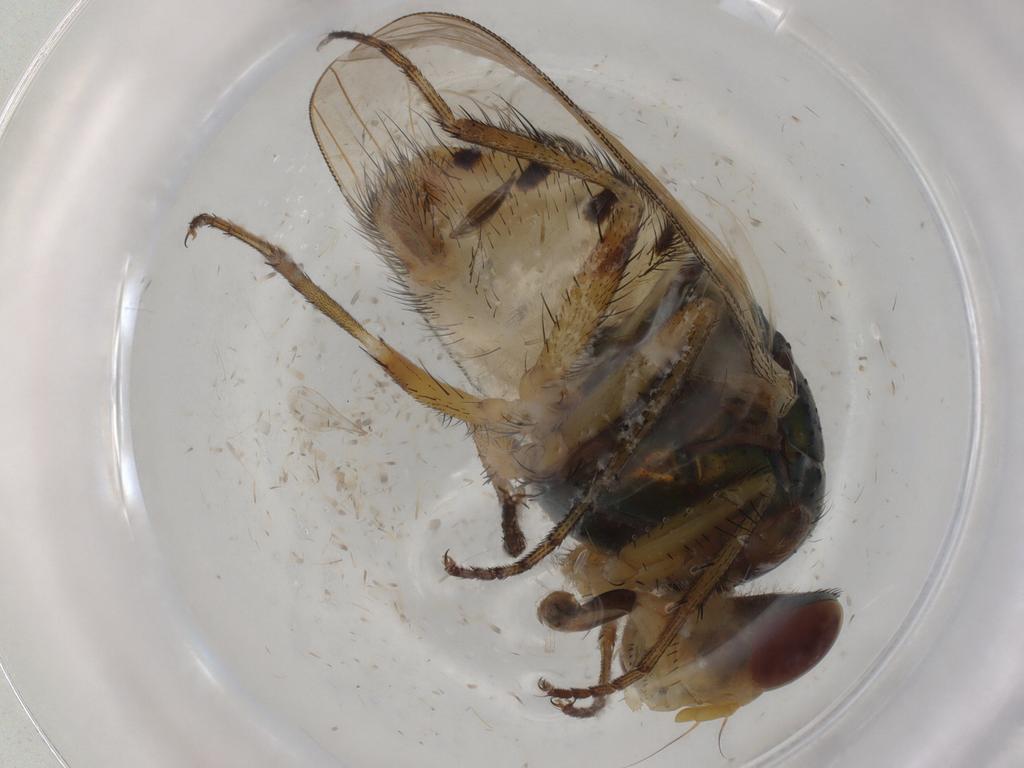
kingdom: Animalia
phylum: Arthropoda
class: Insecta
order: Diptera
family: Calliphoridae
